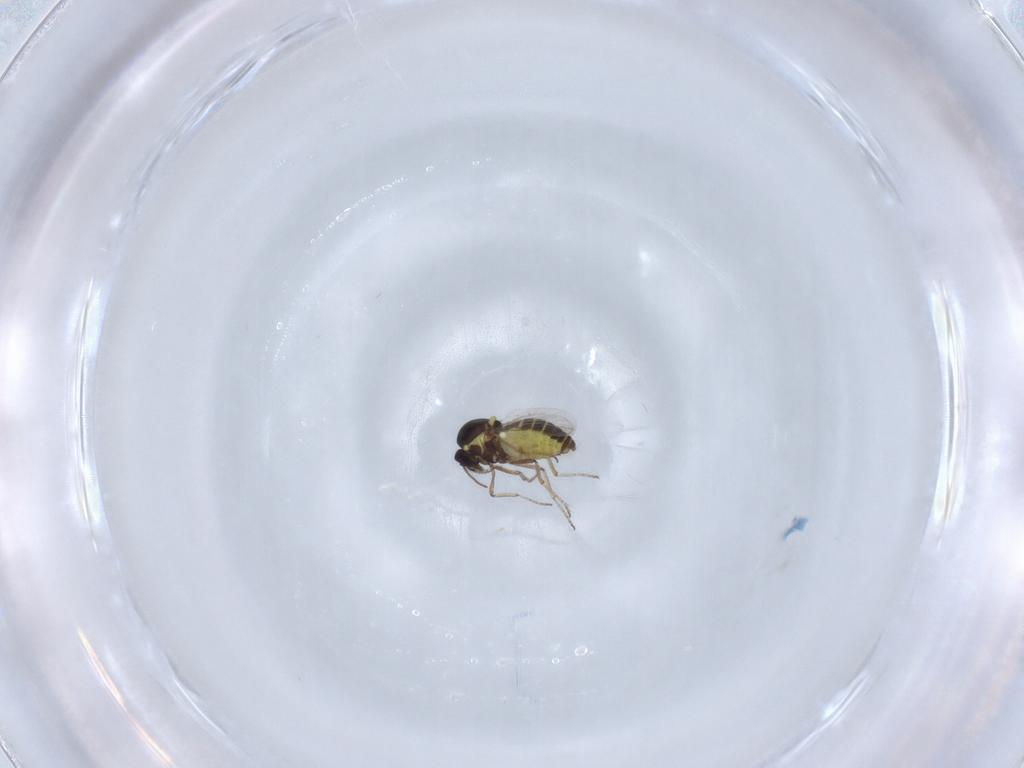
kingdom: Animalia
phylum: Arthropoda
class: Insecta
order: Diptera
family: Ceratopogonidae
